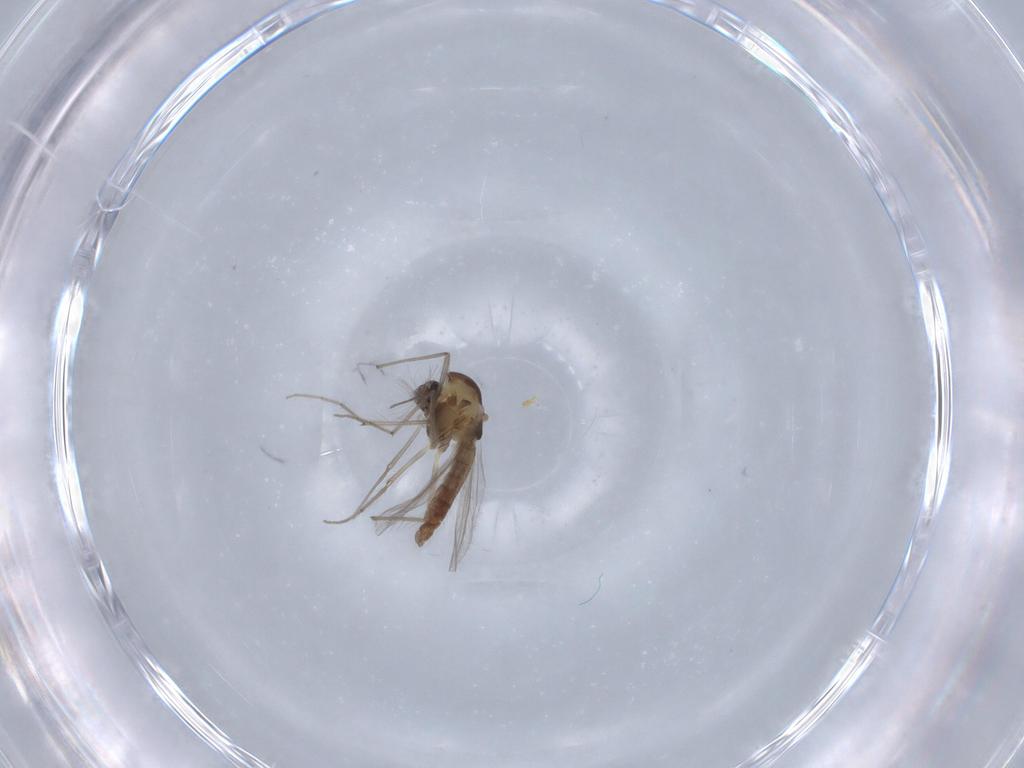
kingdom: Animalia
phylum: Arthropoda
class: Insecta
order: Diptera
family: Chironomidae
